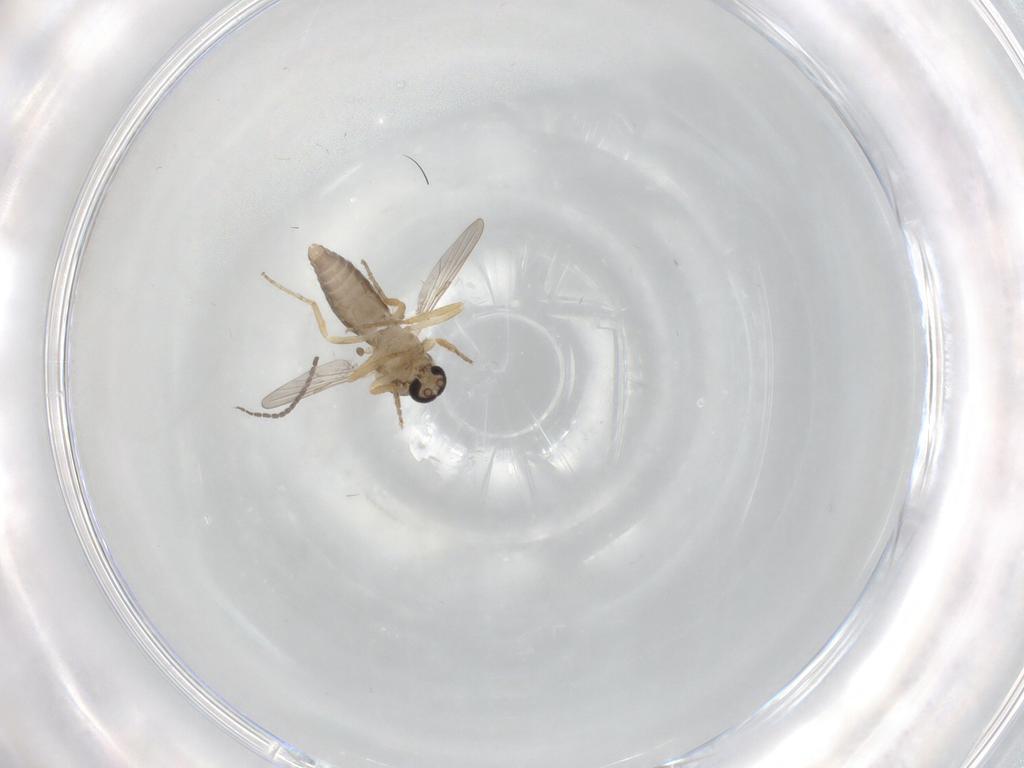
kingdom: Animalia
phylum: Arthropoda
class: Insecta
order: Diptera
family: Ceratopogonidae
